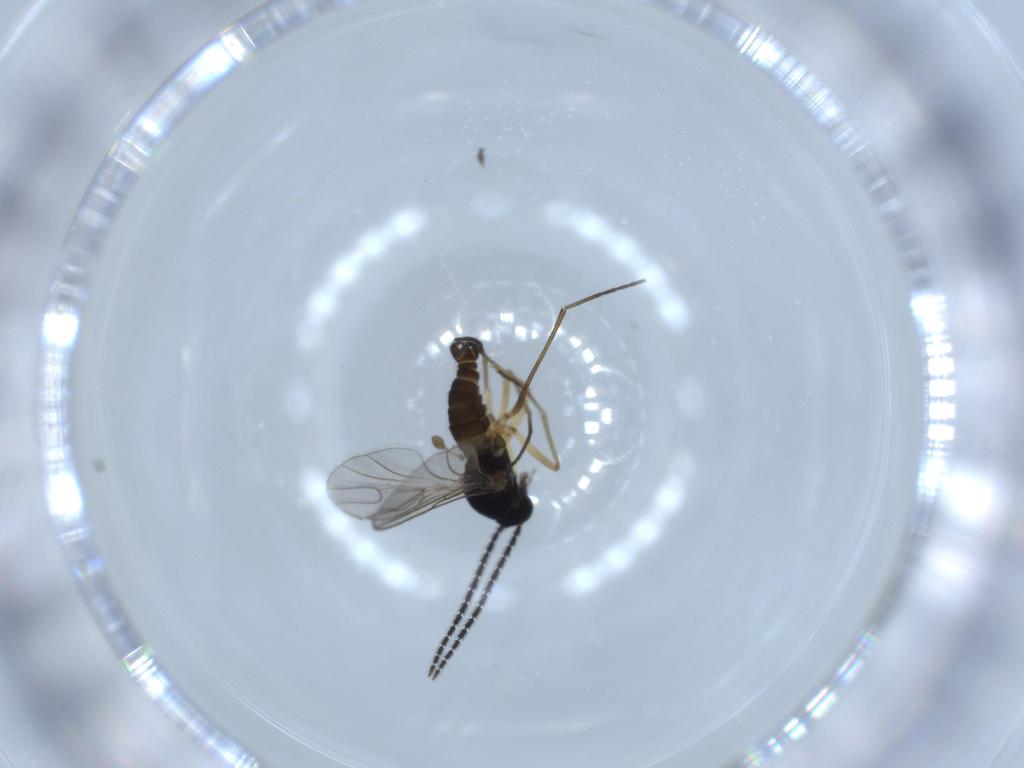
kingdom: Animalia
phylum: Arthropoda
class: Insecta
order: Diptera
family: Sciaridae
